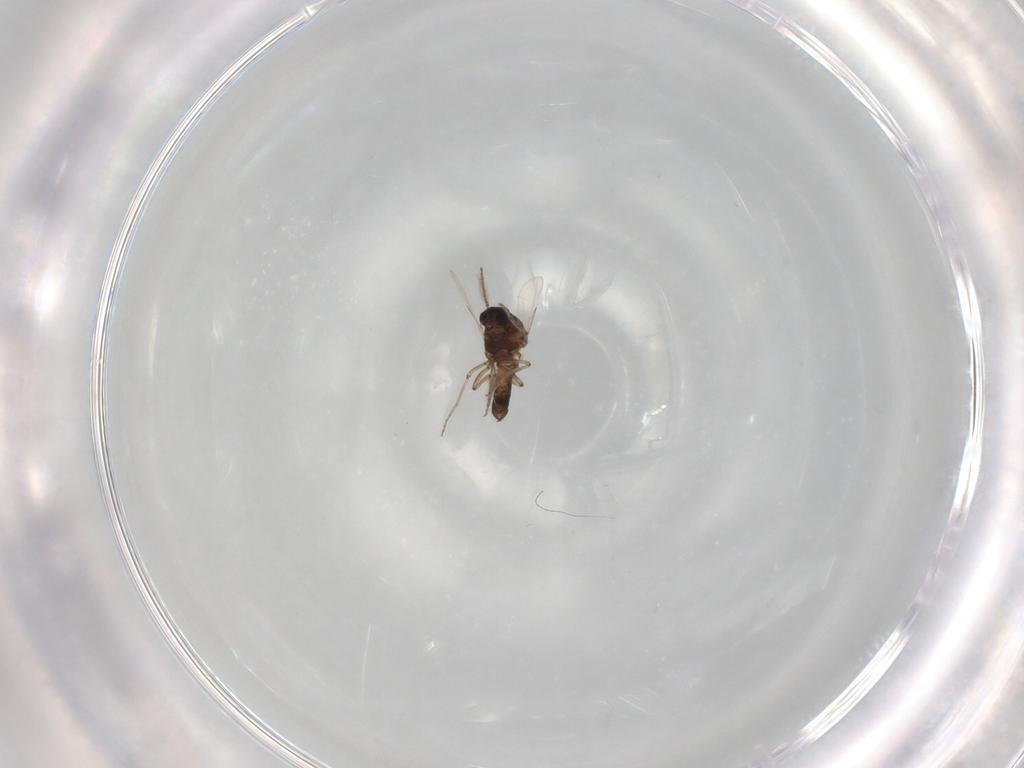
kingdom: Animalia
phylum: Arthropoda
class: Insecta
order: Diptera
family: Ceratopogonidae
